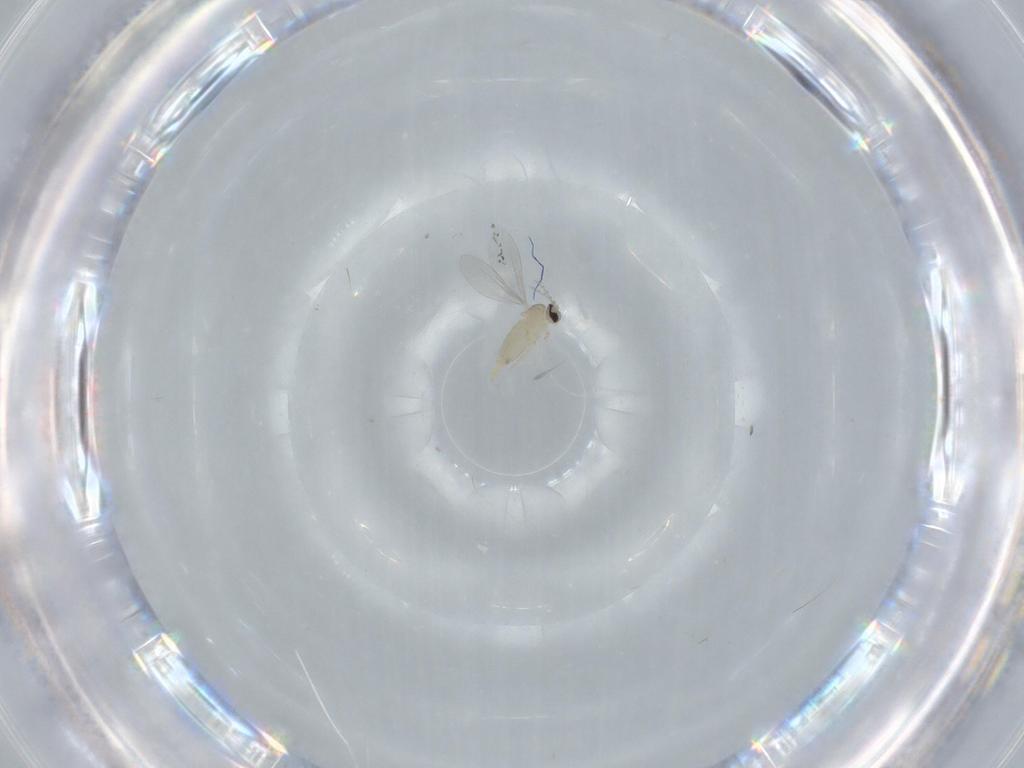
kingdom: Animalia
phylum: Arthropoda
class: Insecta
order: Diptera
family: Cecidomyiidae
